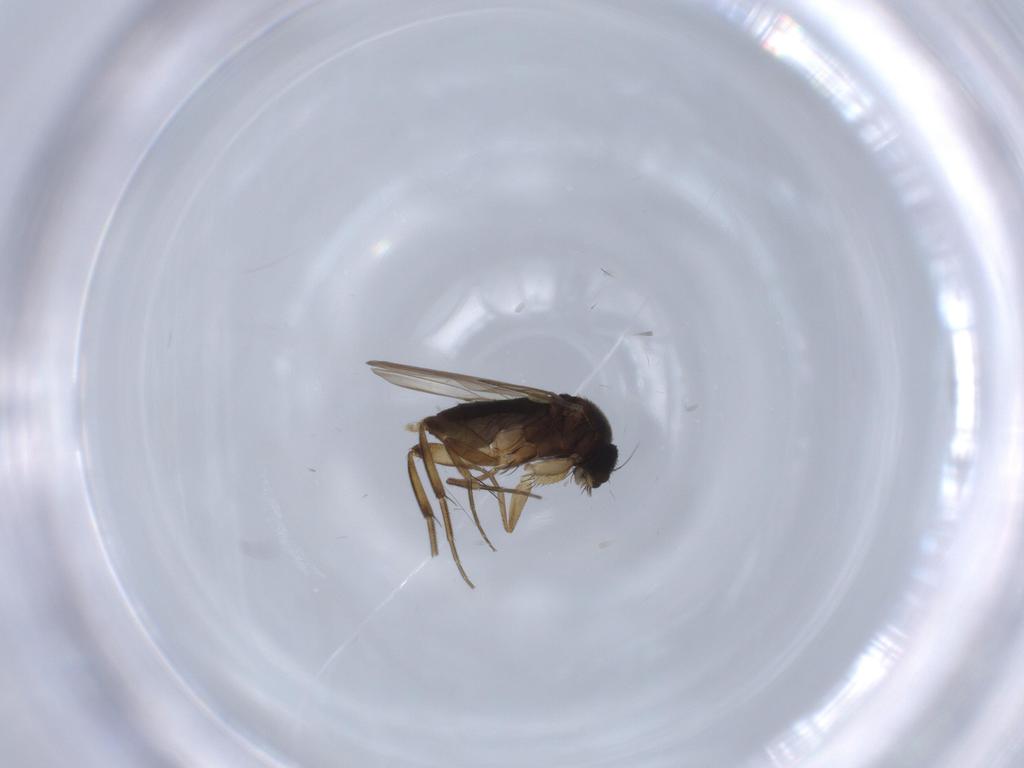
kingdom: Animalia
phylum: Arthropoda
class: Insecta
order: Diptera
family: Phoridae
